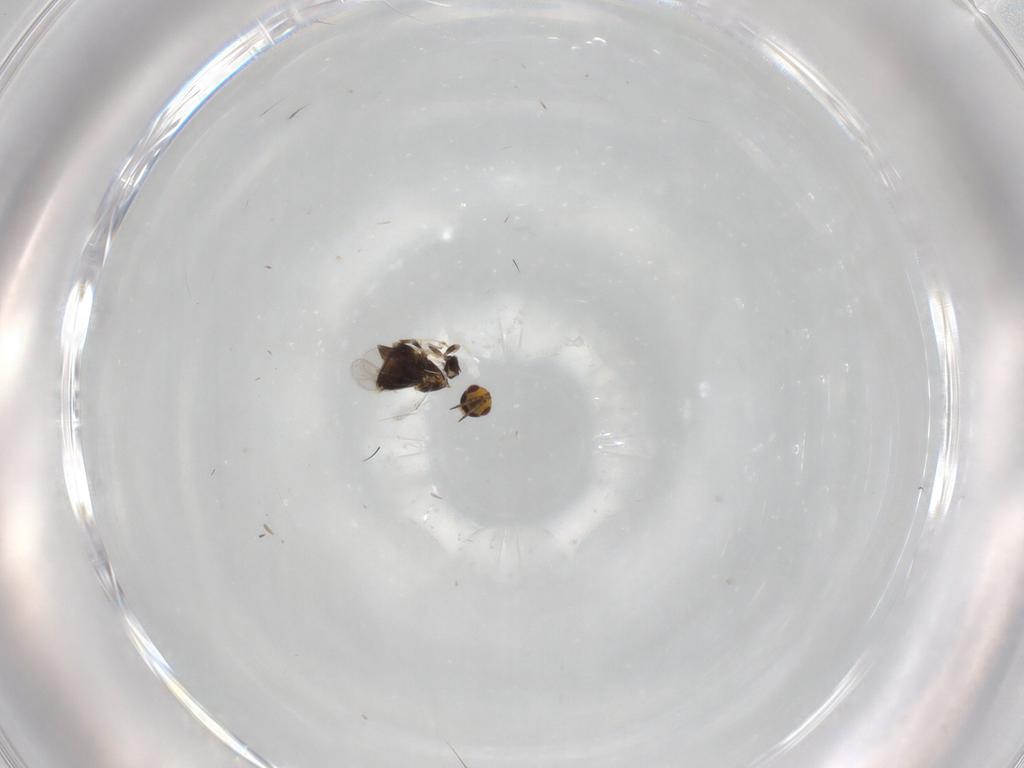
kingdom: Animalia
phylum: Arthropoda
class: Insecta
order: Hymenoptera
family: Aphelinidae
